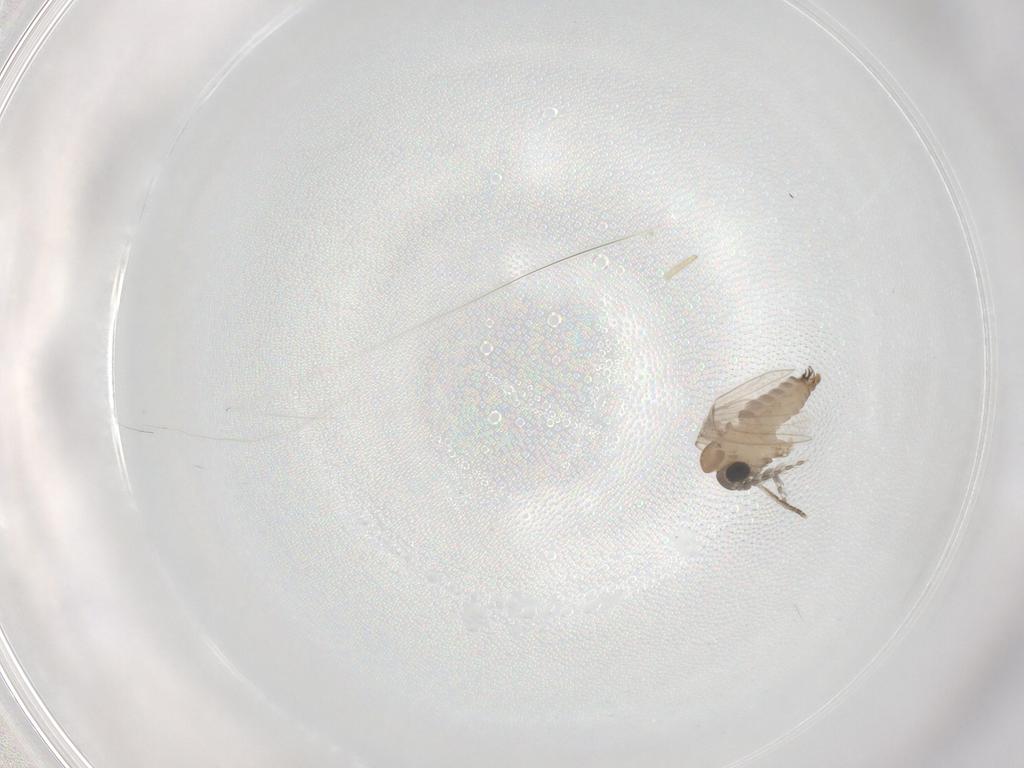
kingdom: Animalia
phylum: Arthropoda
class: Insecta
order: Diptera
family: Psychodidae
